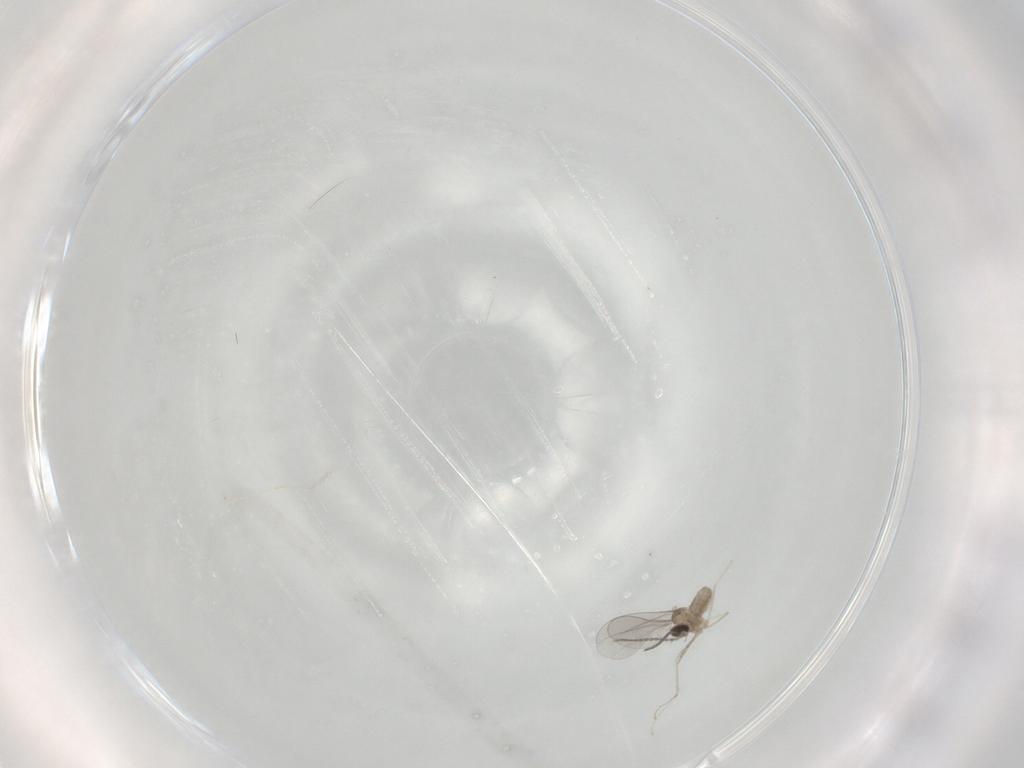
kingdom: Animalia
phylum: Arthropoda
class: Insecta
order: Diptera
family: Cecidomyiidae
